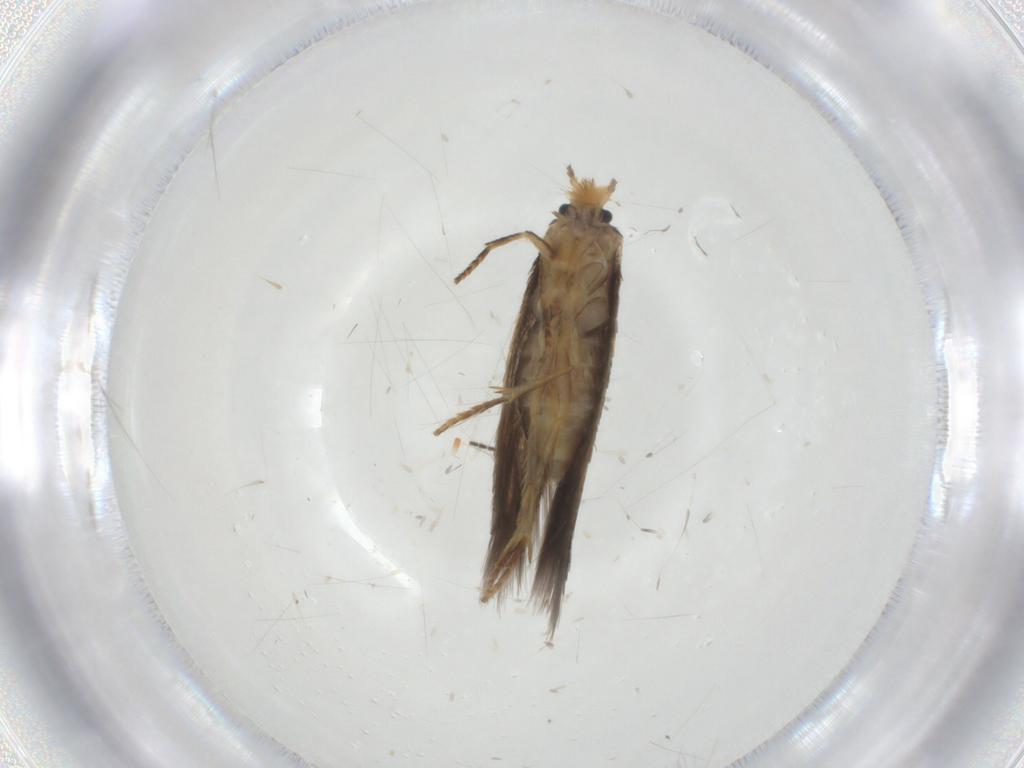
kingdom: Animalia
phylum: Arthropoda
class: Insecta
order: Lepidoptera
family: Nepticulidae
